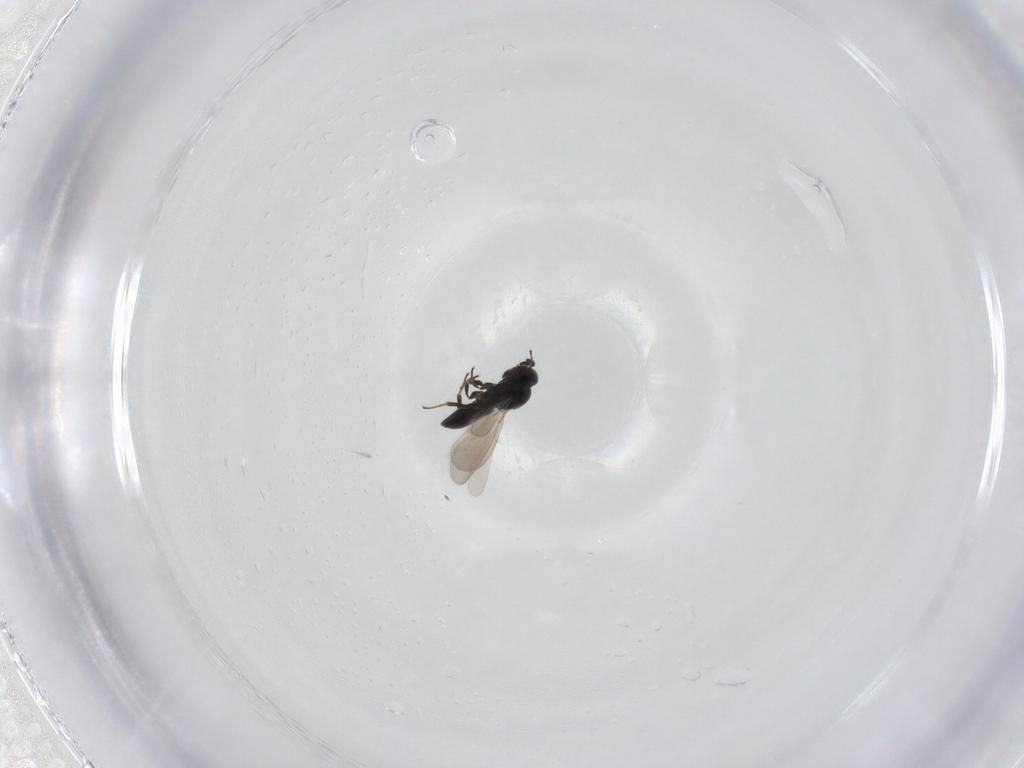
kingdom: Animalia
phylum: Arthropoda
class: Insecta
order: Hymenoptera
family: Platygastridae
